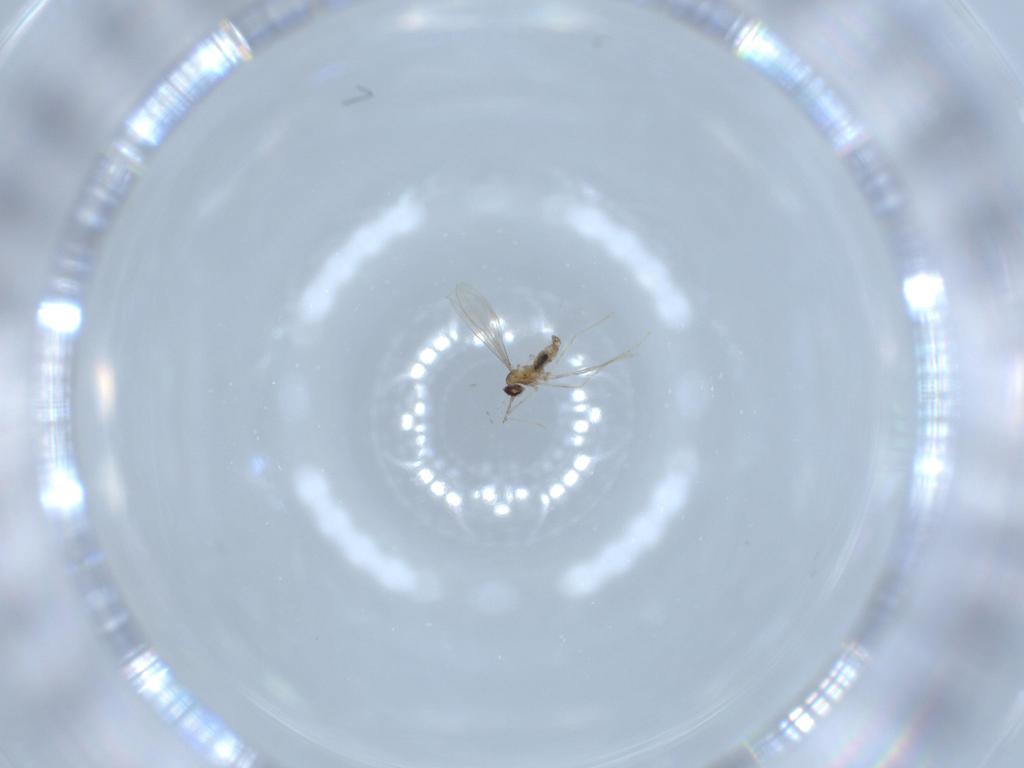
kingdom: Animalia
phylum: Arthropoda
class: Insecta
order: Diptera
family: Cecidomyiidae
